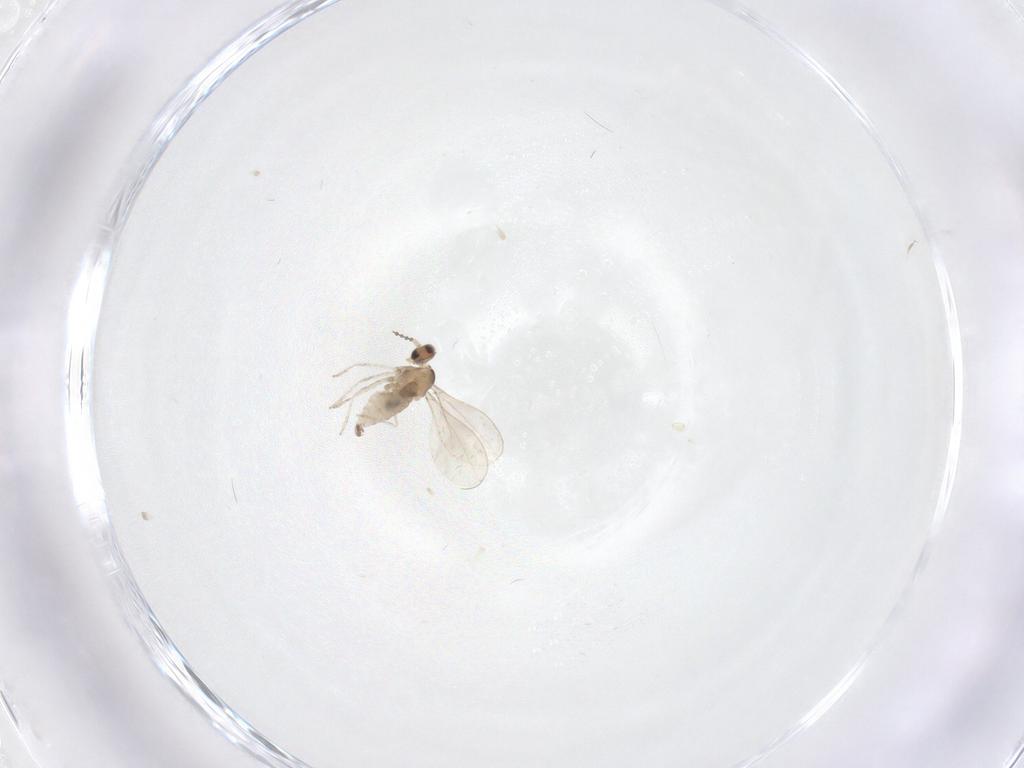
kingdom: Animalia
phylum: Arthropoda
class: Insecta
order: Diptera
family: Cecidomyiidae
